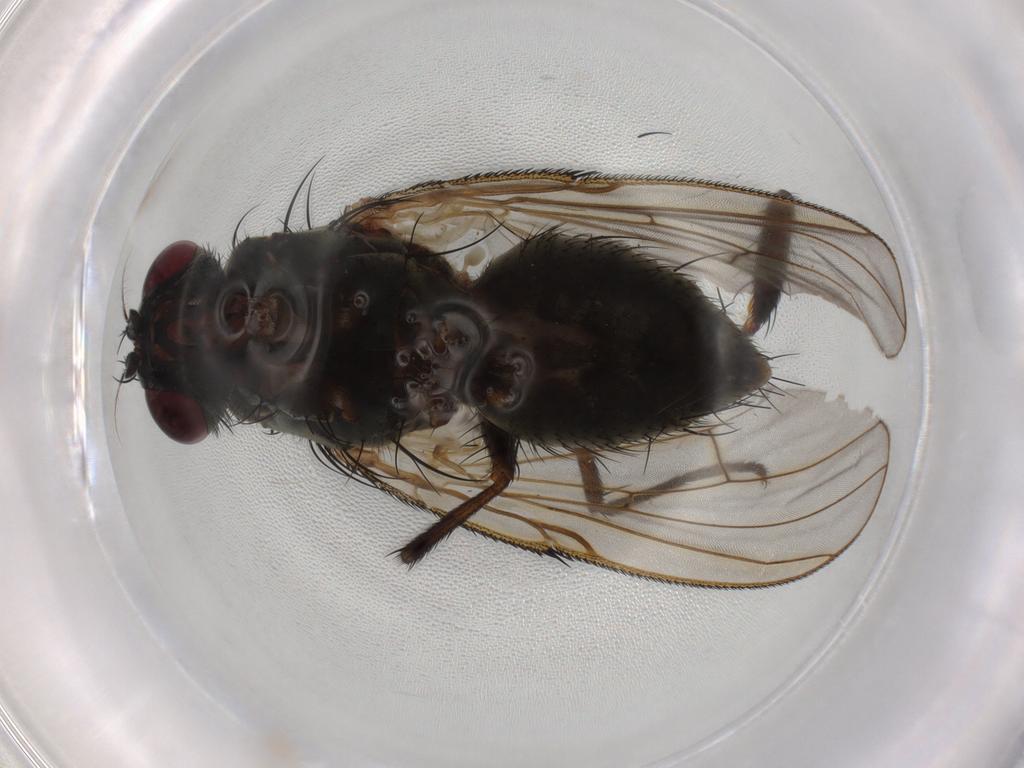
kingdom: Animalia
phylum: Arthropoda
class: Insecta
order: Diptera
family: Muscidae
